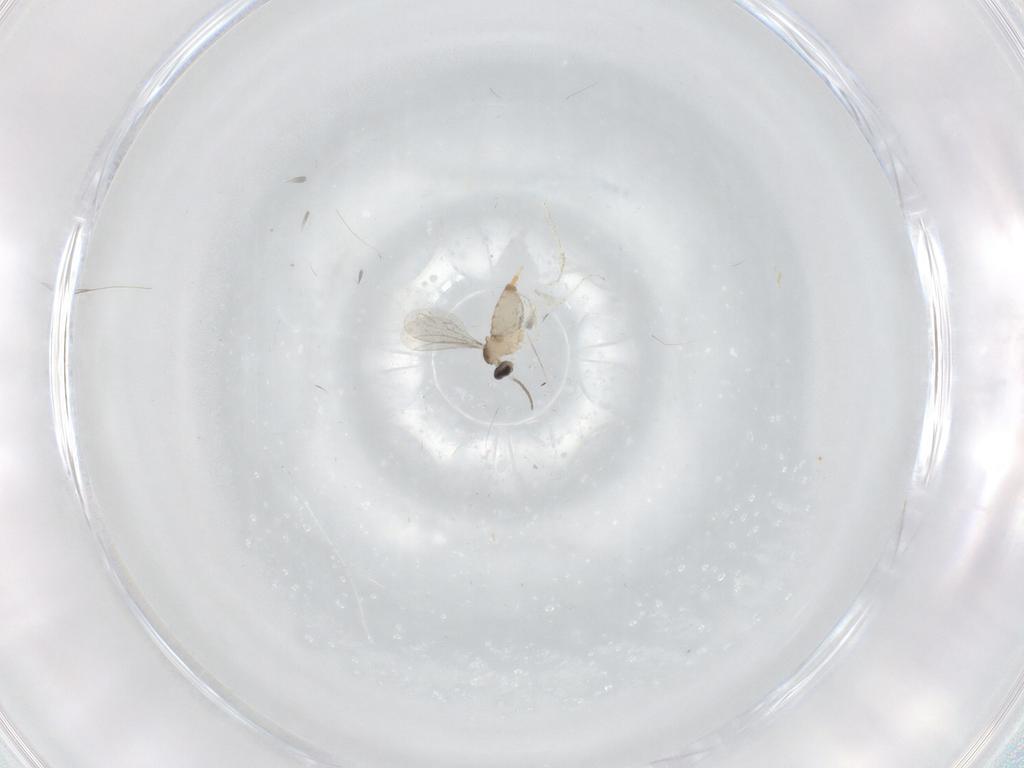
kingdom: Animalia
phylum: Arthropoda
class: Insecta
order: Diptera
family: Cecidomyiidae
